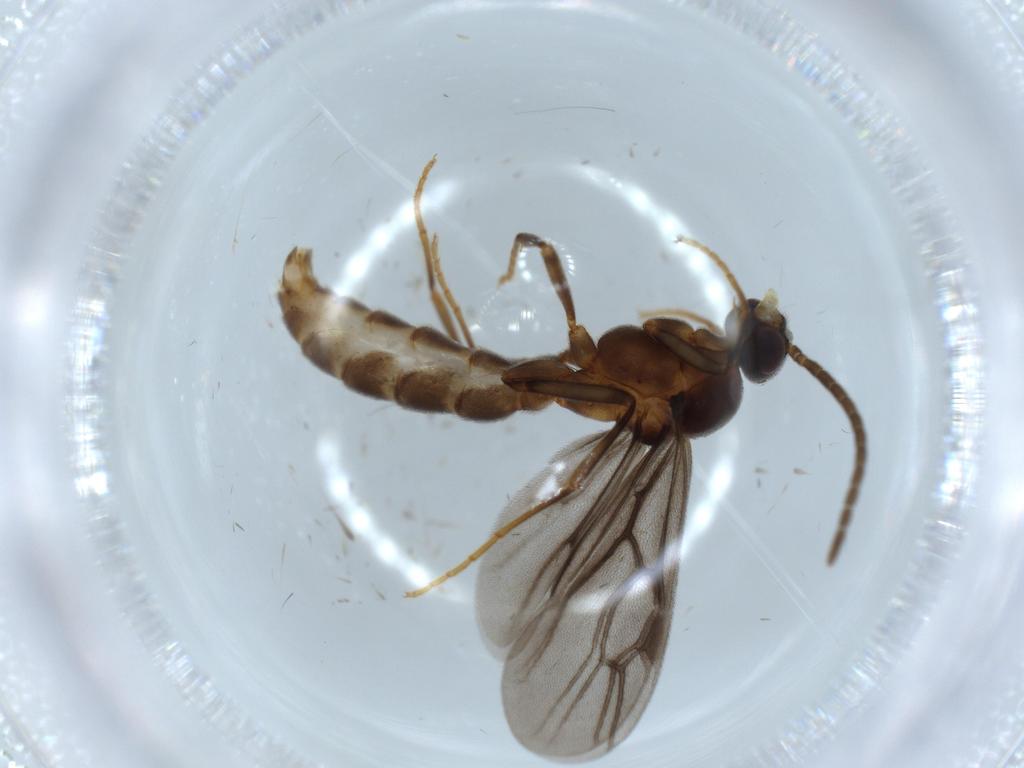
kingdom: Animalia
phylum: Arthropoda
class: Insecta
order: Hymenoptera
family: Formicidae
